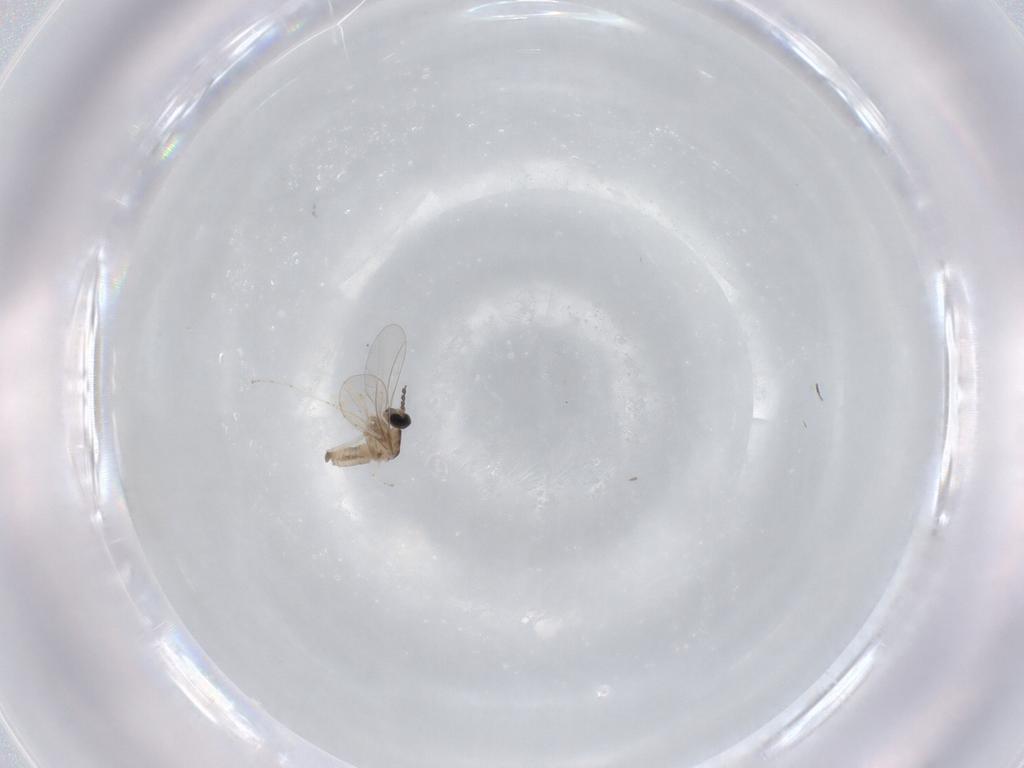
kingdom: Animalia
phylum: Arthropoda
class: Insecta
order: Diptera
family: Cecidomyiidae
